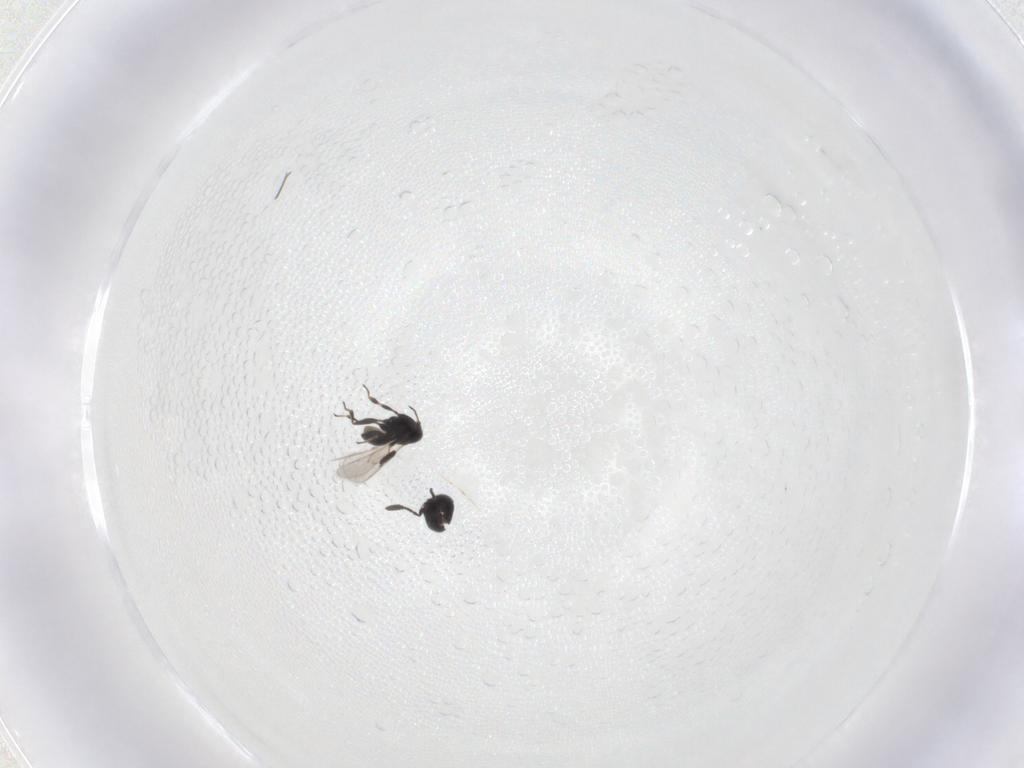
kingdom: Animalia
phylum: Arthropoda
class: Insecta
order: Hymenoptera
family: Scelionidae
